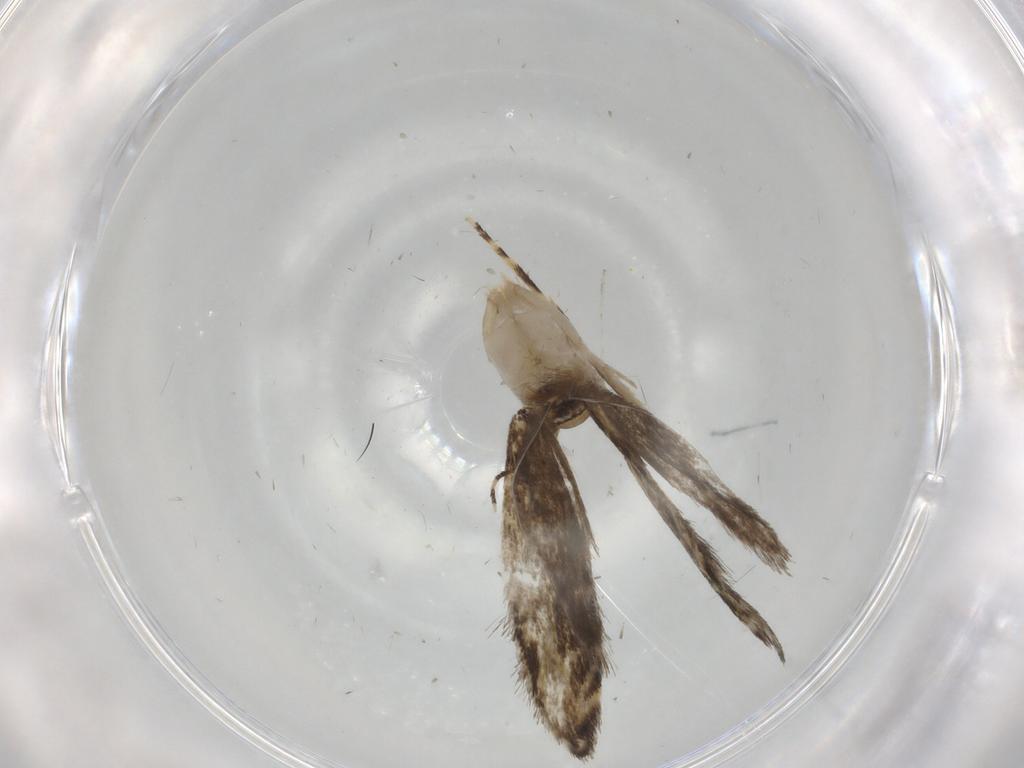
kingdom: Animalia
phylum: Arthropoda
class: Insecta
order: Lepidoptera
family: Tineidae
